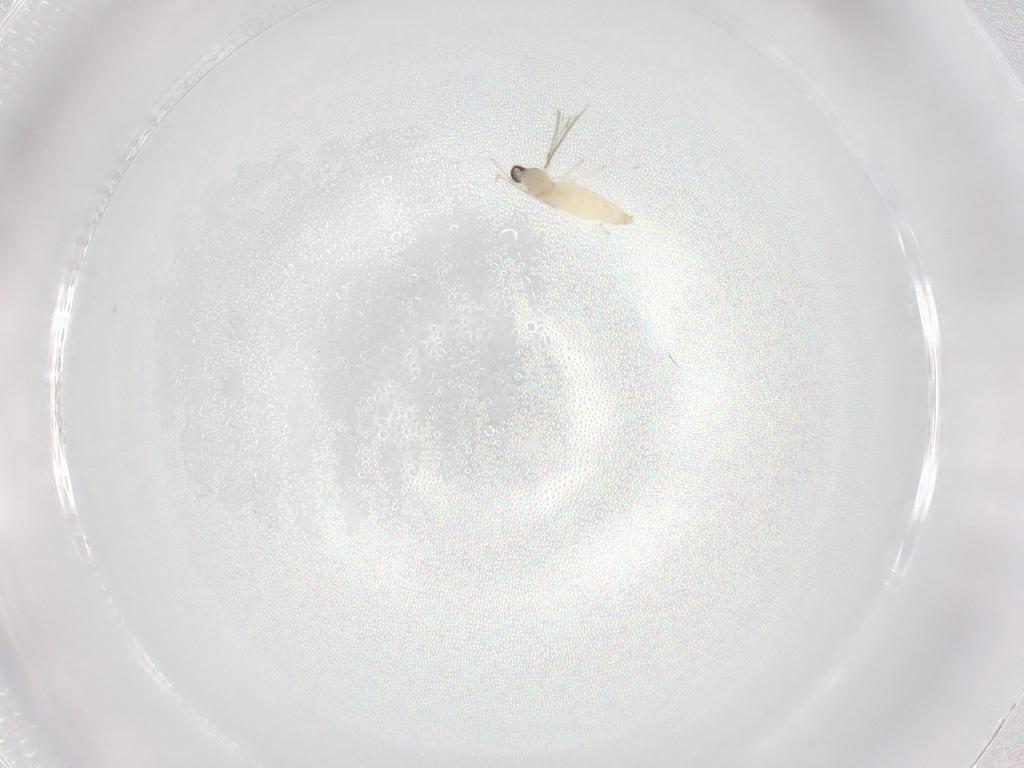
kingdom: Animalia
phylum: Arthropoda
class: Insecta
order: Diptera
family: Cecidomyiidae
